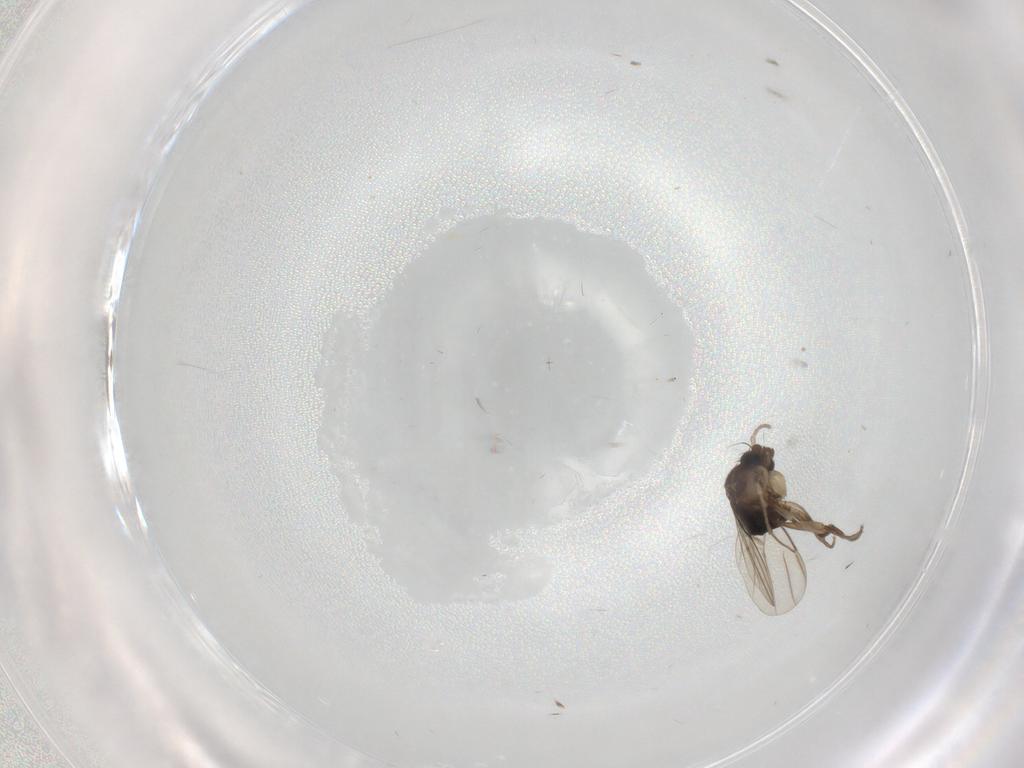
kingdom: Animalia
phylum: Arthropoda
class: Insecta
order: Diptera
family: Phoridae
